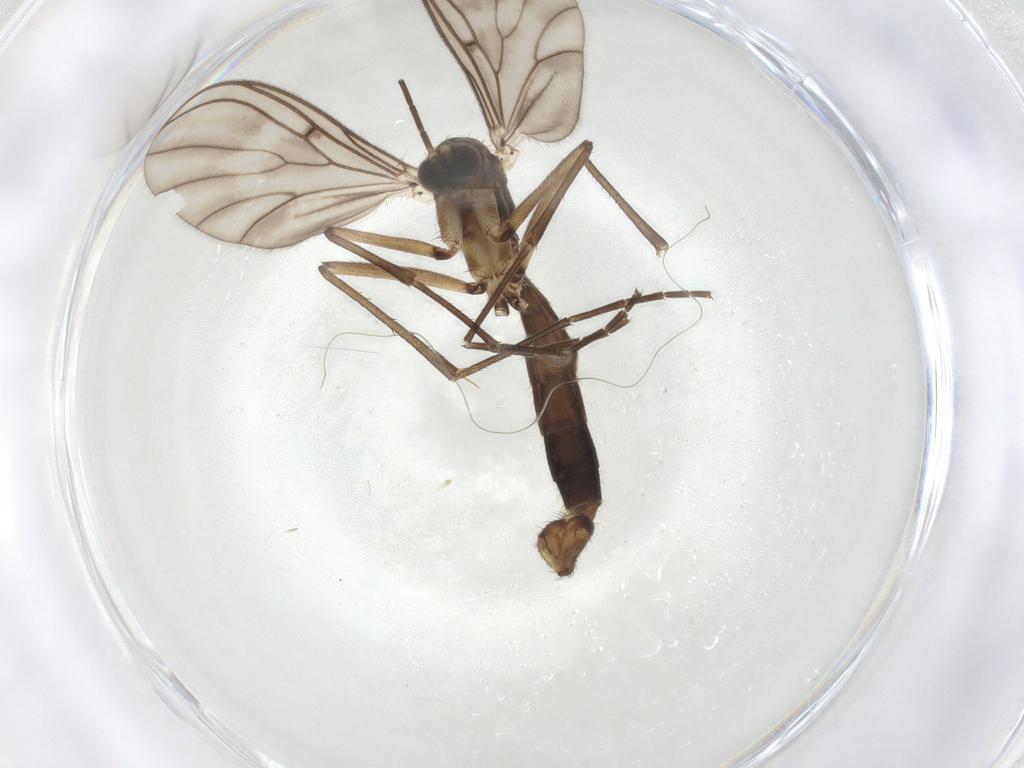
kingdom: Animalia
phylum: Arthropoda
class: Insecta
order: Diptera
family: Mycetophilidae
